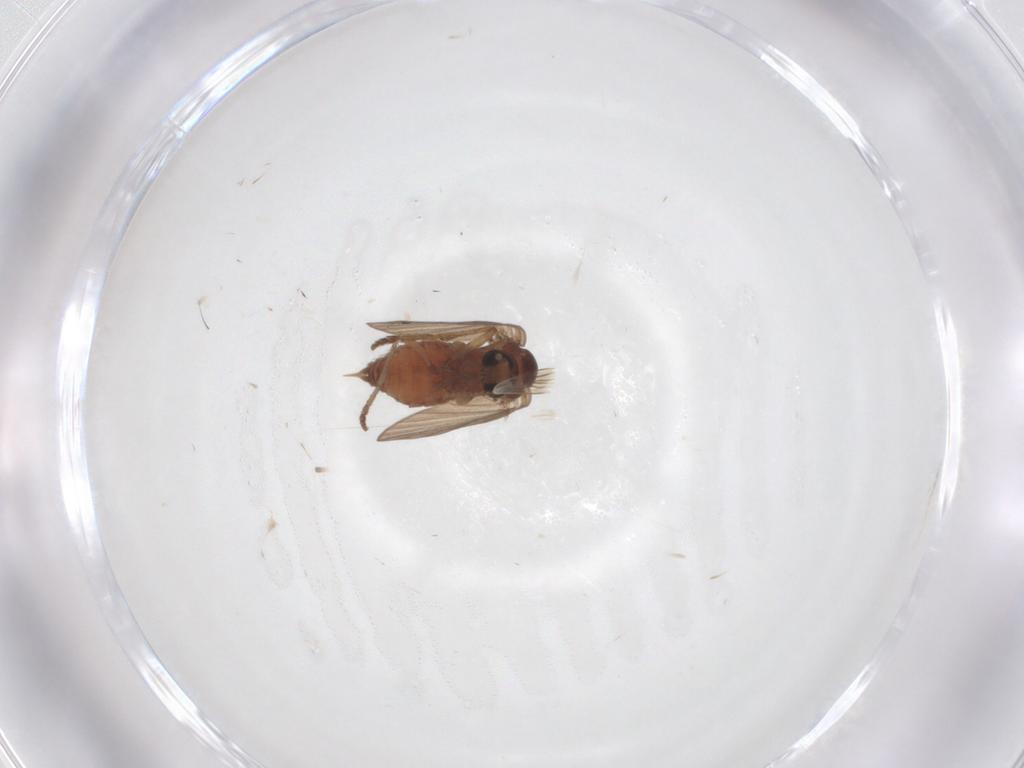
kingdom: Animalia
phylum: Arthropoda
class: Insecta
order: Diptera
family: Psychodidae
